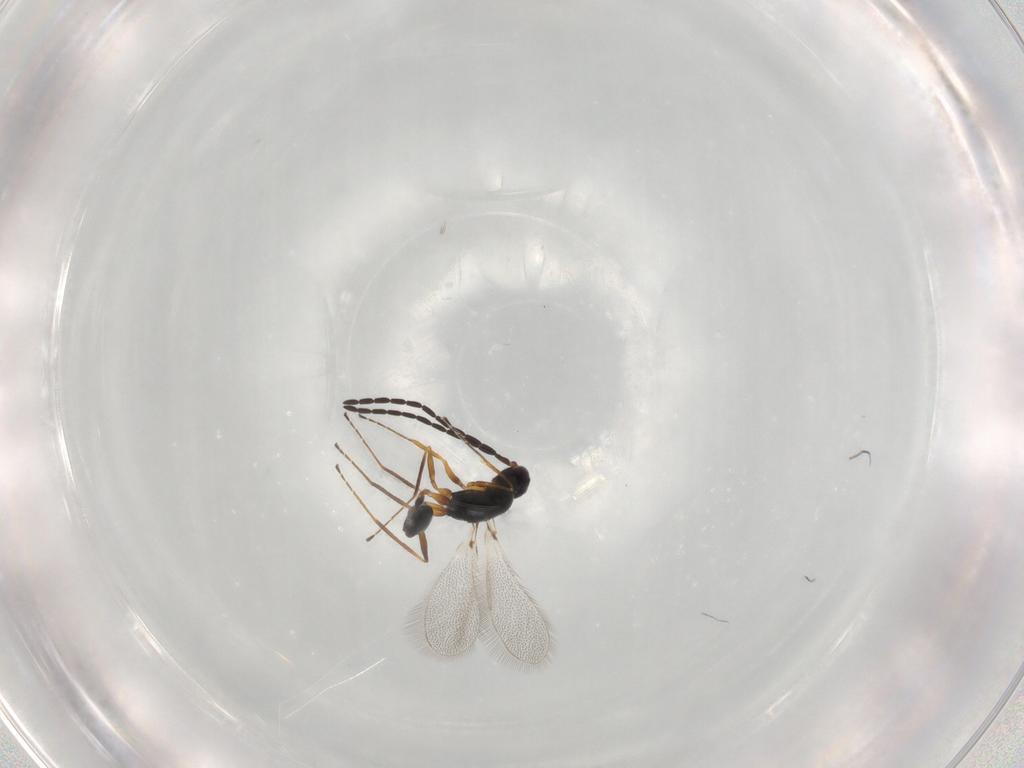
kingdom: Animalia
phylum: Arthropoda
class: Insecta
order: Hymenoptera
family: Mymaridae
